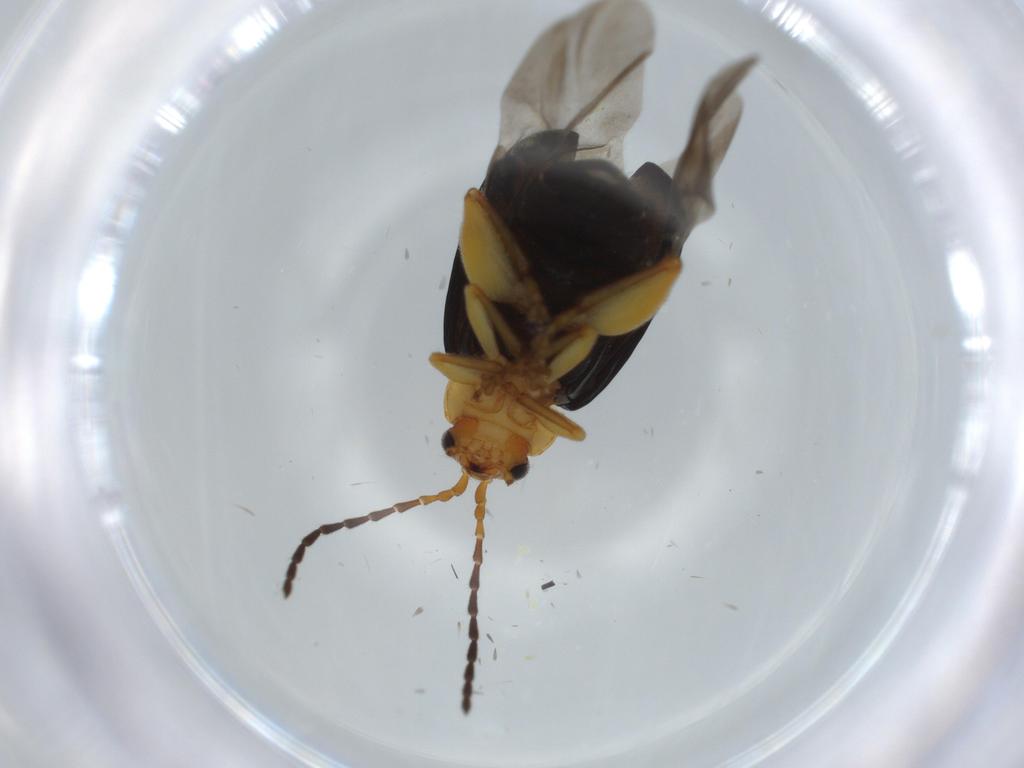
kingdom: Animalia
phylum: Arthropoda
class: Insecta
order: Coleoptera
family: Chrysomelidae
